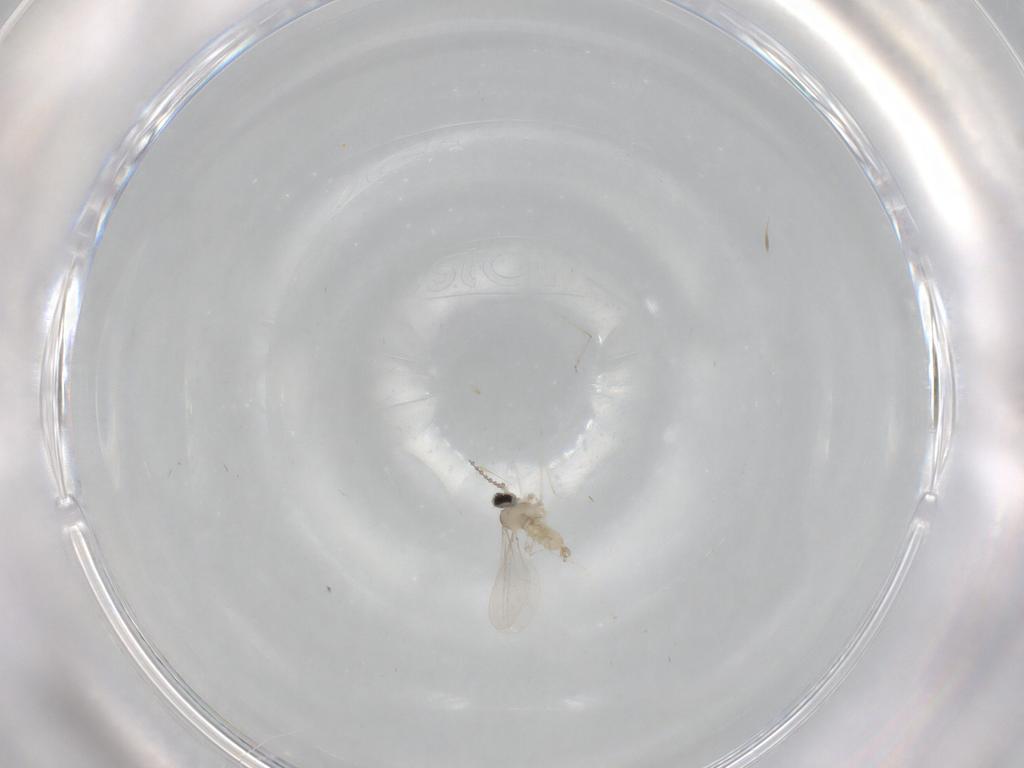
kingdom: Animalia
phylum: Arthropoda
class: Insecta
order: Diptera
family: Cecidomyiidae
